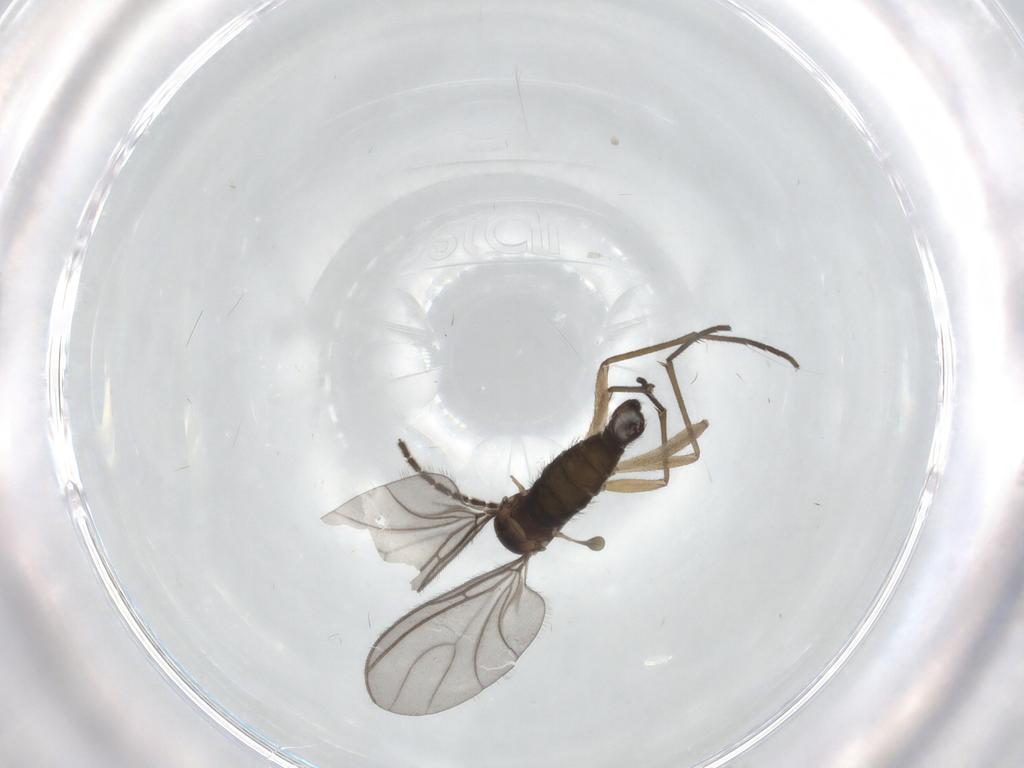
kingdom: Animalia
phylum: Arthropoda
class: Insecta
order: Diptera
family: Sciaridae
